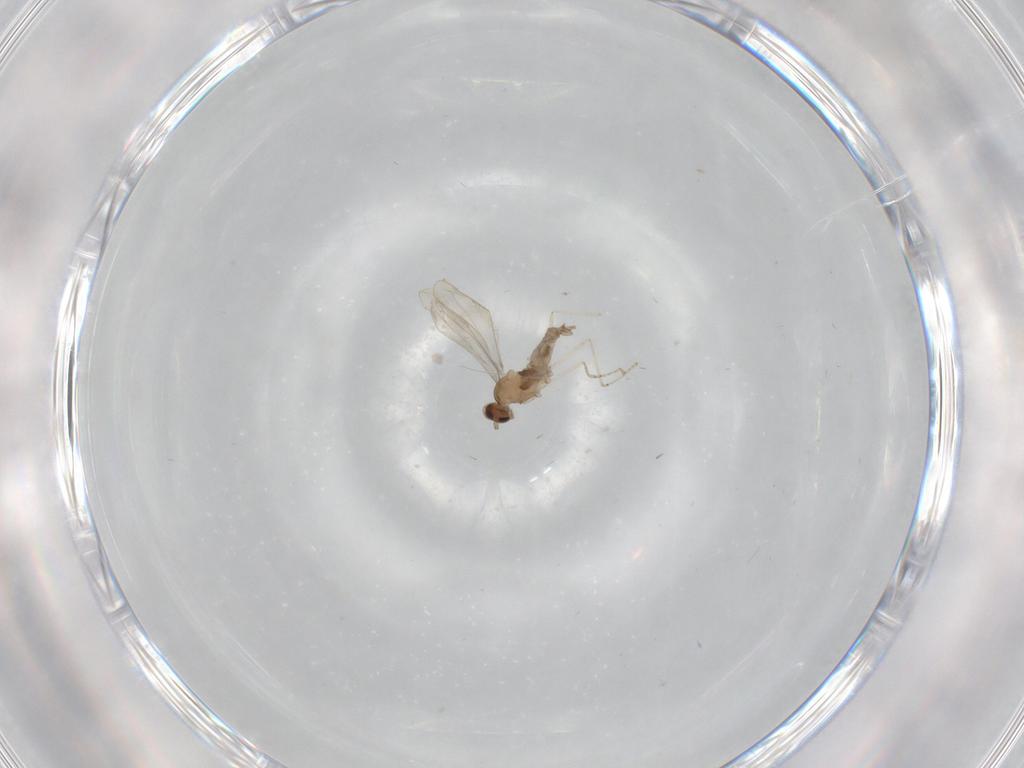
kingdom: Animalia
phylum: Arthropoda
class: Insecta
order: Diptera
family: Cecidomyiidae
